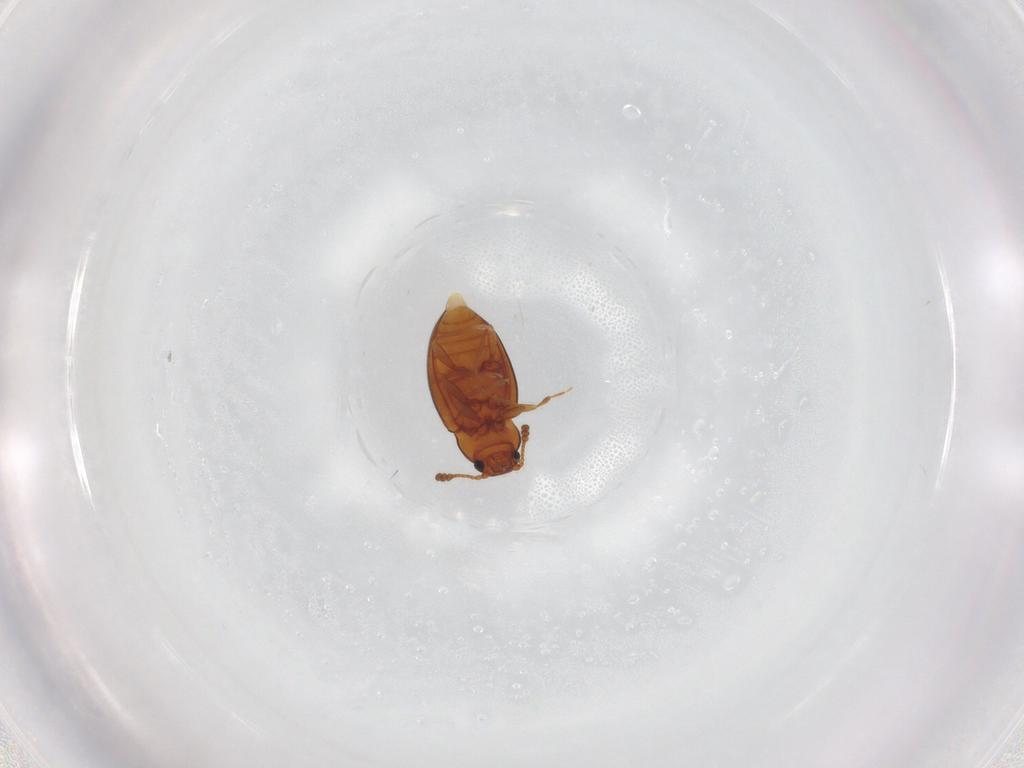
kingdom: Animalia
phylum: Arthropoda
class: Insecta
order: Coleoptera
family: Erotylidae
